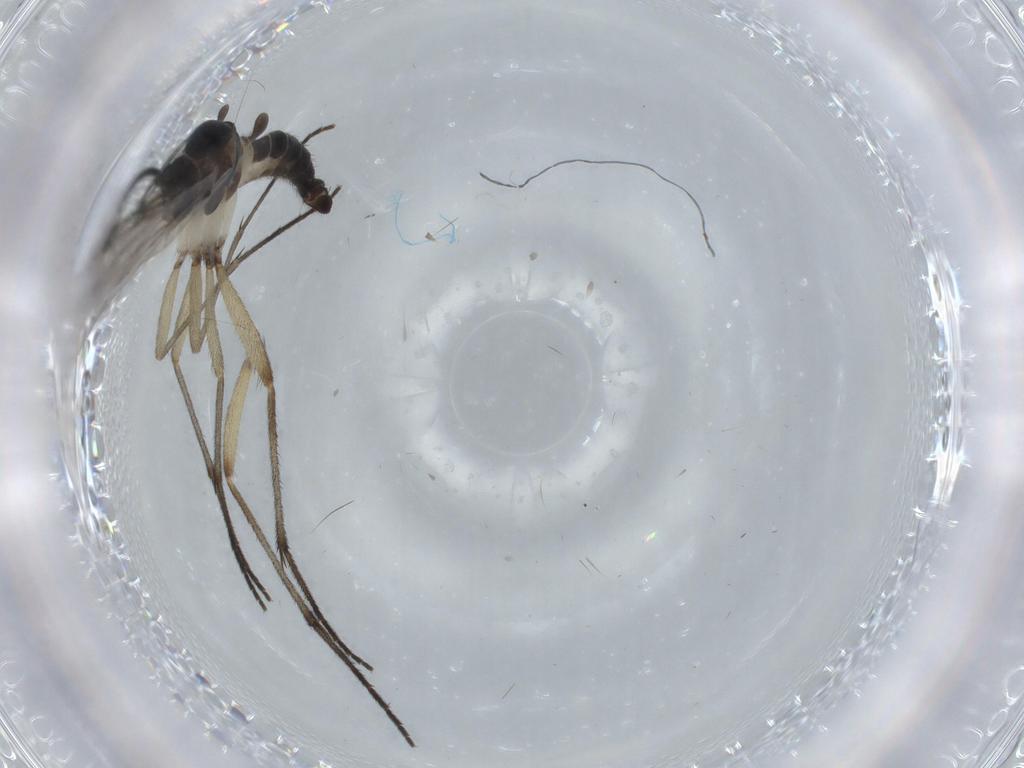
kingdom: Animalia
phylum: Arthropoda
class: Insecta
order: Diptera
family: Sciaridae
